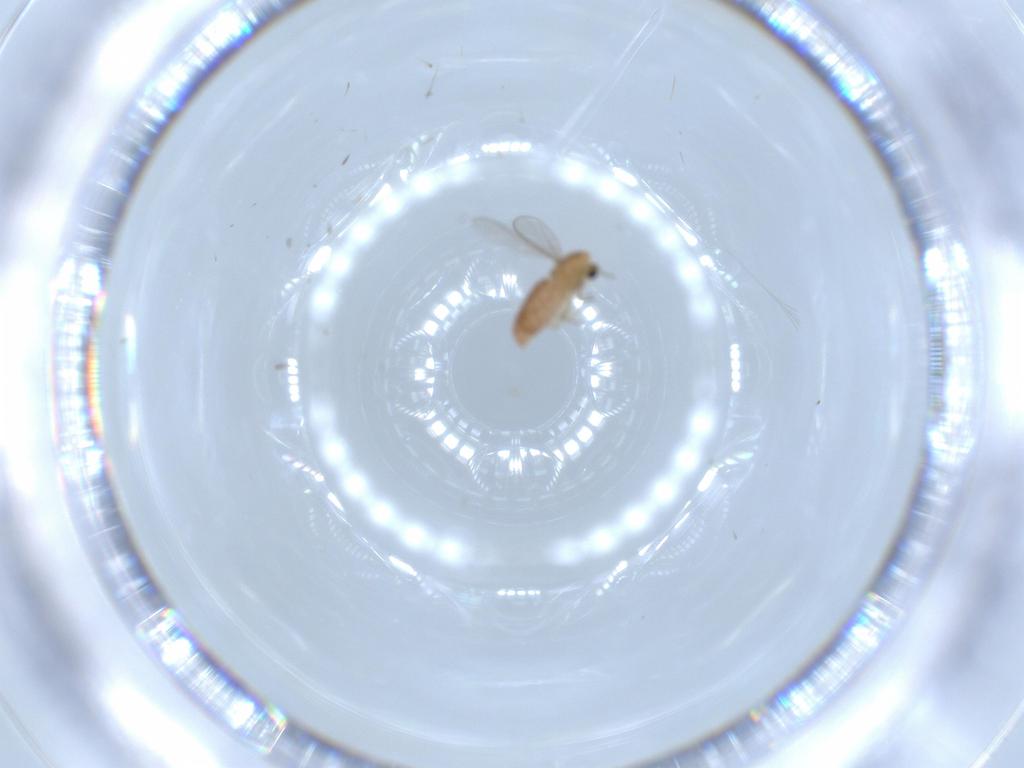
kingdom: Animalia
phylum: Arthropoda
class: Insecta
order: Diptera
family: Chironomidae
